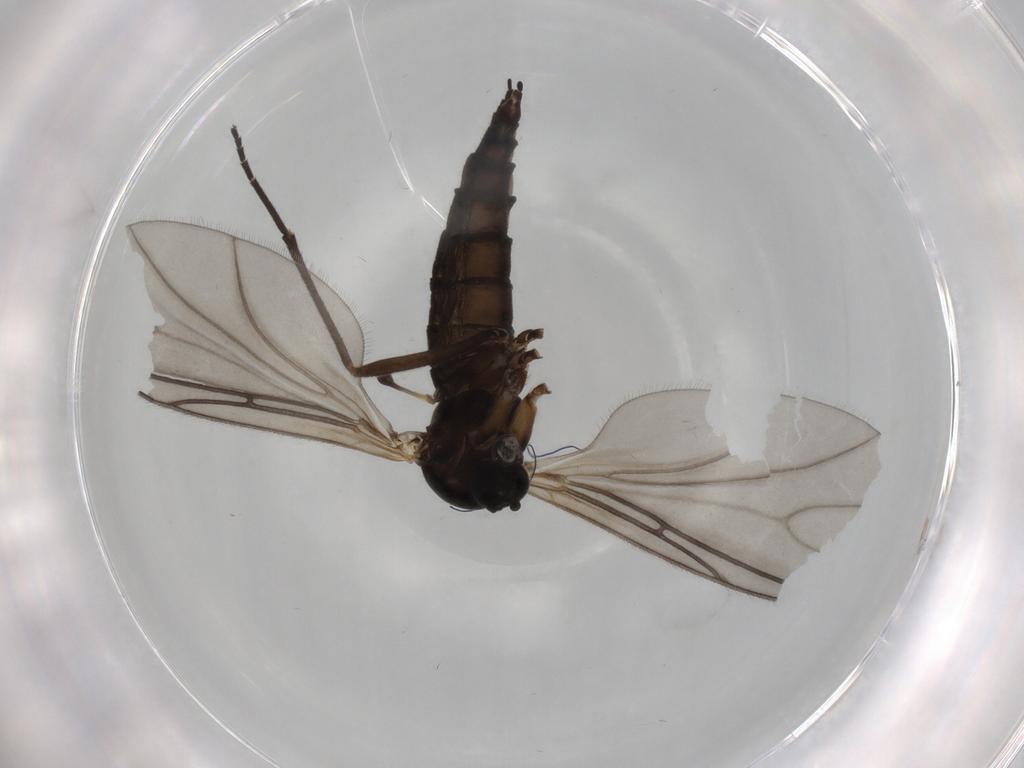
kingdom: Animalia
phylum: Arthropoda
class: Insecta
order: Diptera
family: Sciaridae
